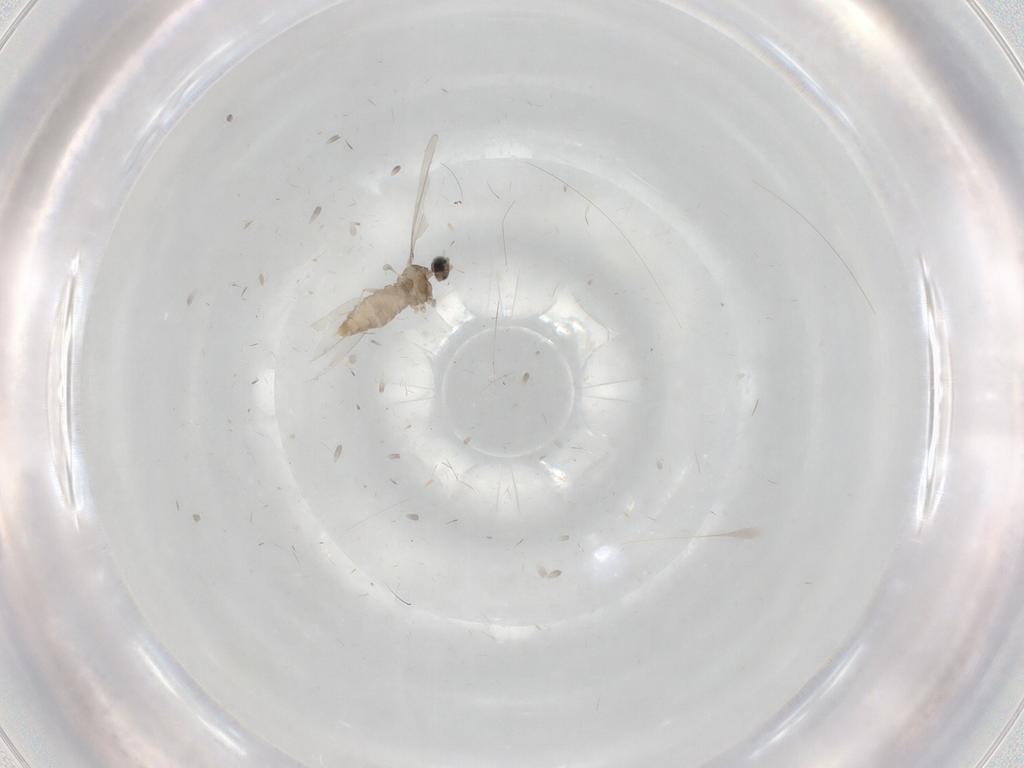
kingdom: Animalia
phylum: Arthropoda
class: Insecta
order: Diptera
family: Cecidomyiidae
